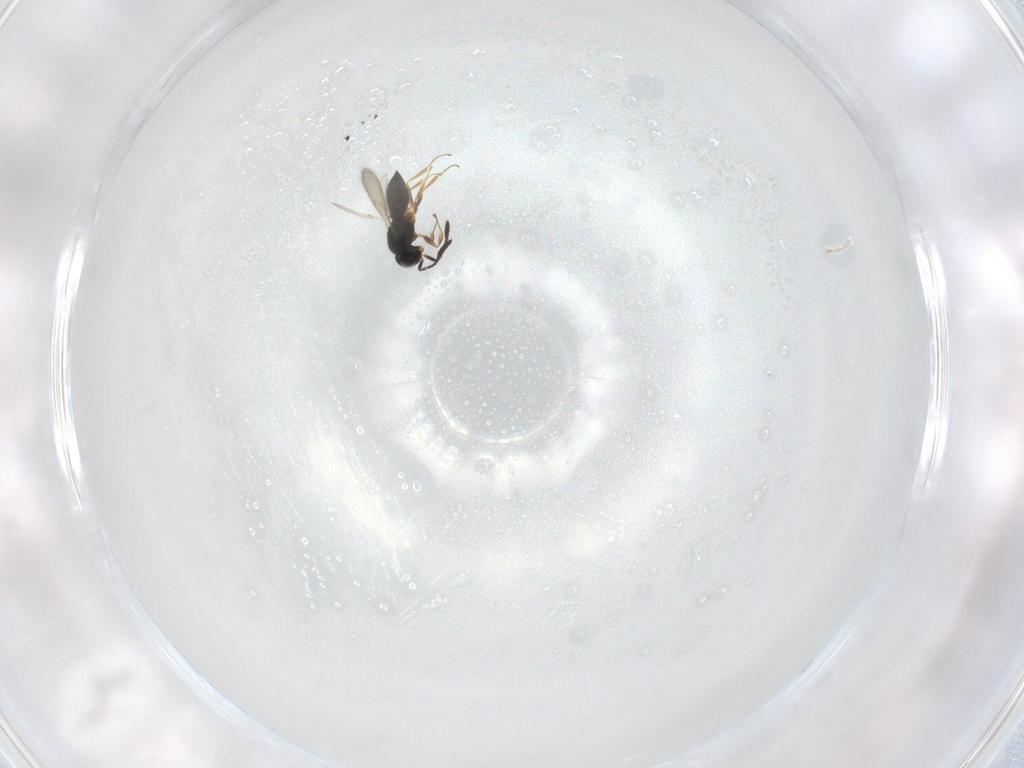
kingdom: Animalia
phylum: Arthropoda
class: Insecta
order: Hymenoptera
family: Scelionidae
